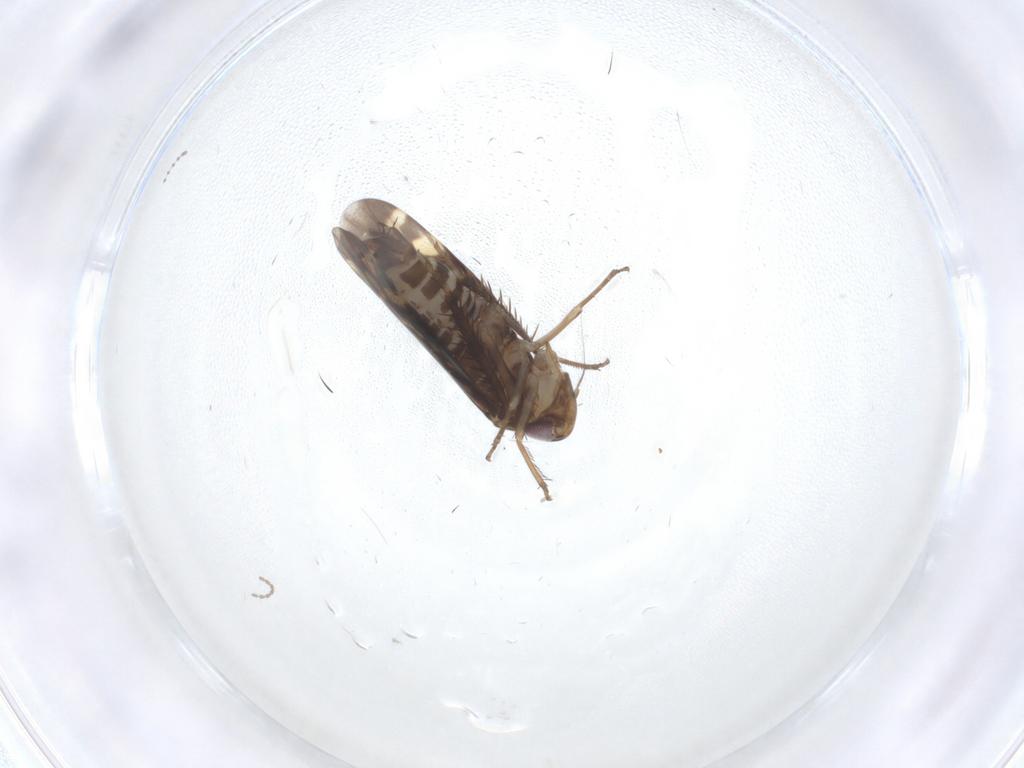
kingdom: Animalia
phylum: Arthropoda
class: Insecta
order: Hemiptera
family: Cicadellidae
